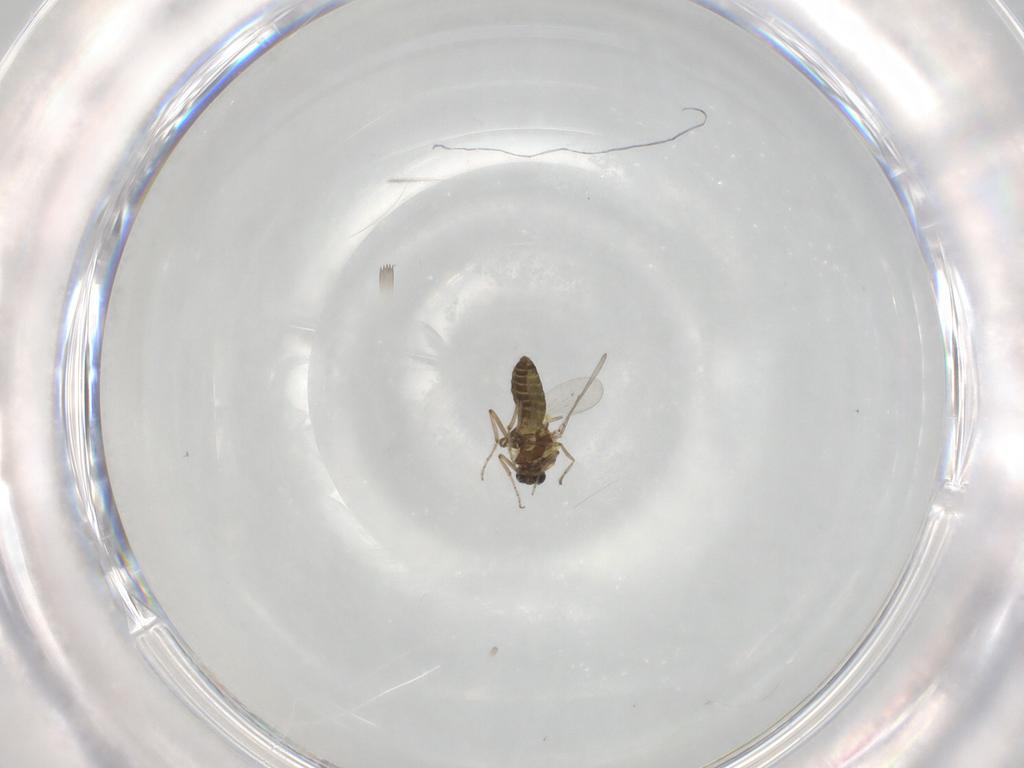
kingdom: Animalia
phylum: Arthropoda
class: Insecta
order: Diptera
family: Ceratopogonidae
